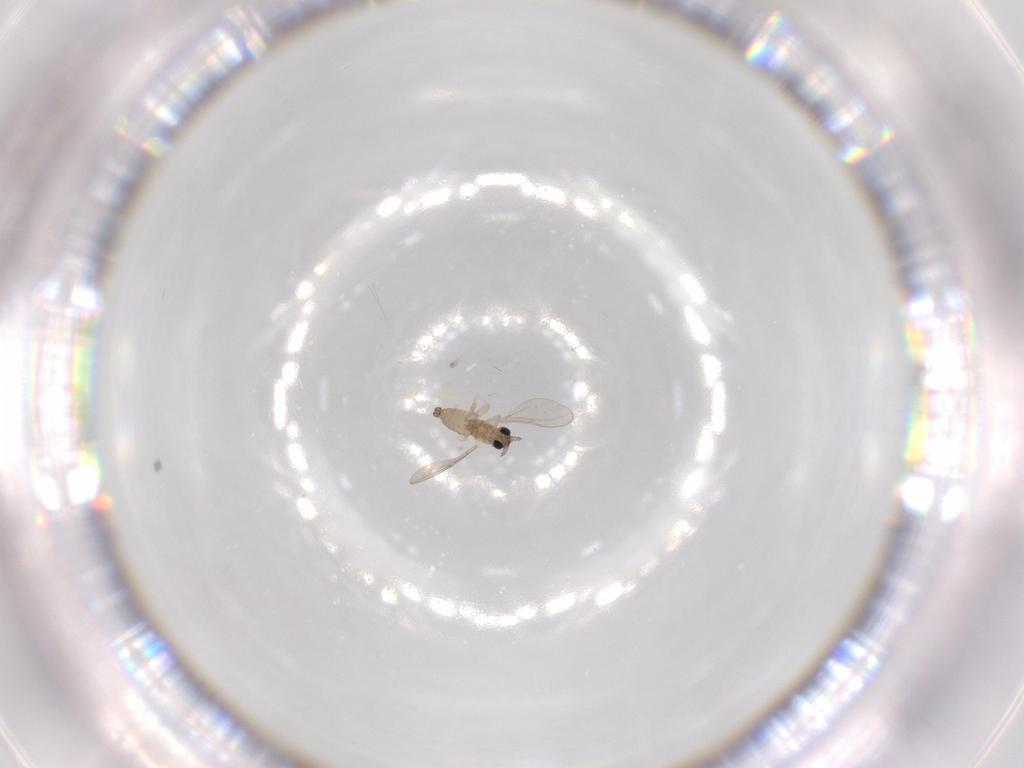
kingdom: Animalia
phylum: Arthropoda
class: Insecta
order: Diptera
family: Cecidomyiidae
